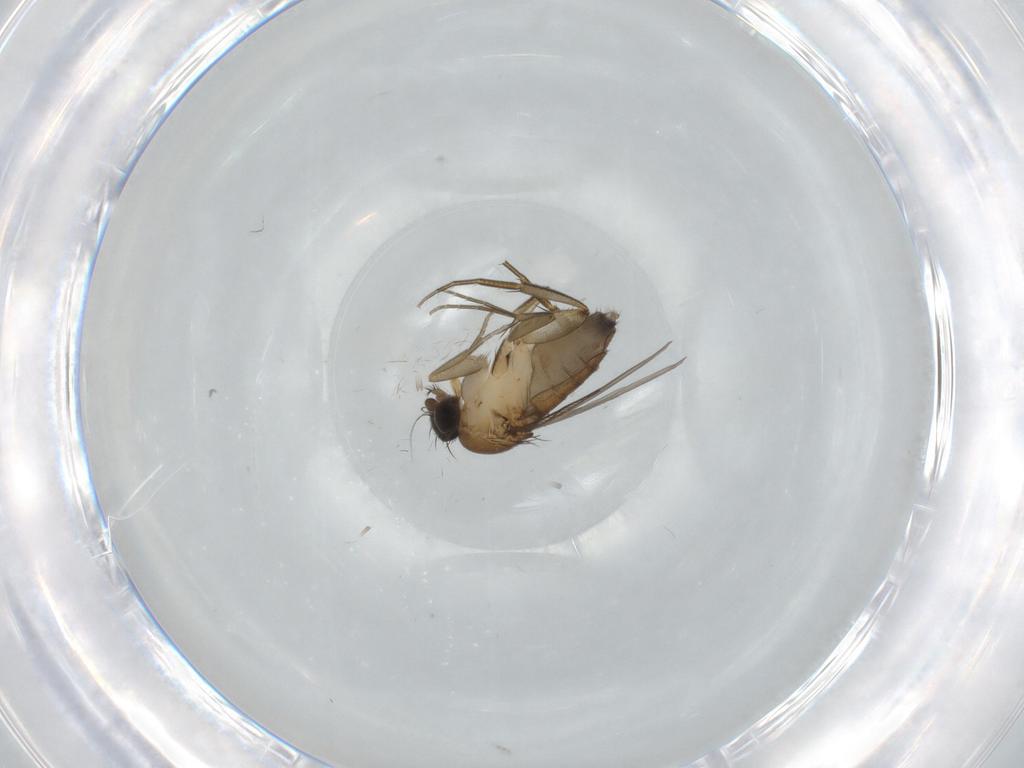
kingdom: Animalia
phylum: Arthropoda
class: Insecta
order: Diptera
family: Phoridae
